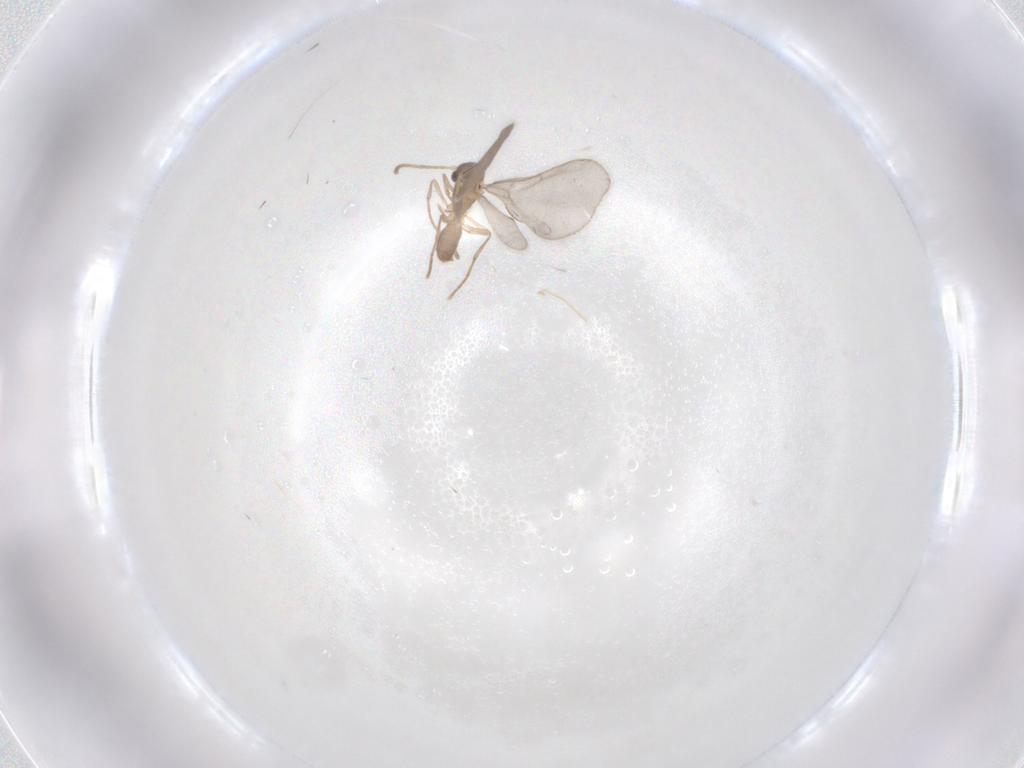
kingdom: Animalia
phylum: Arthropoda
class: Insecta
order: Hymenoptera
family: Formicidae
